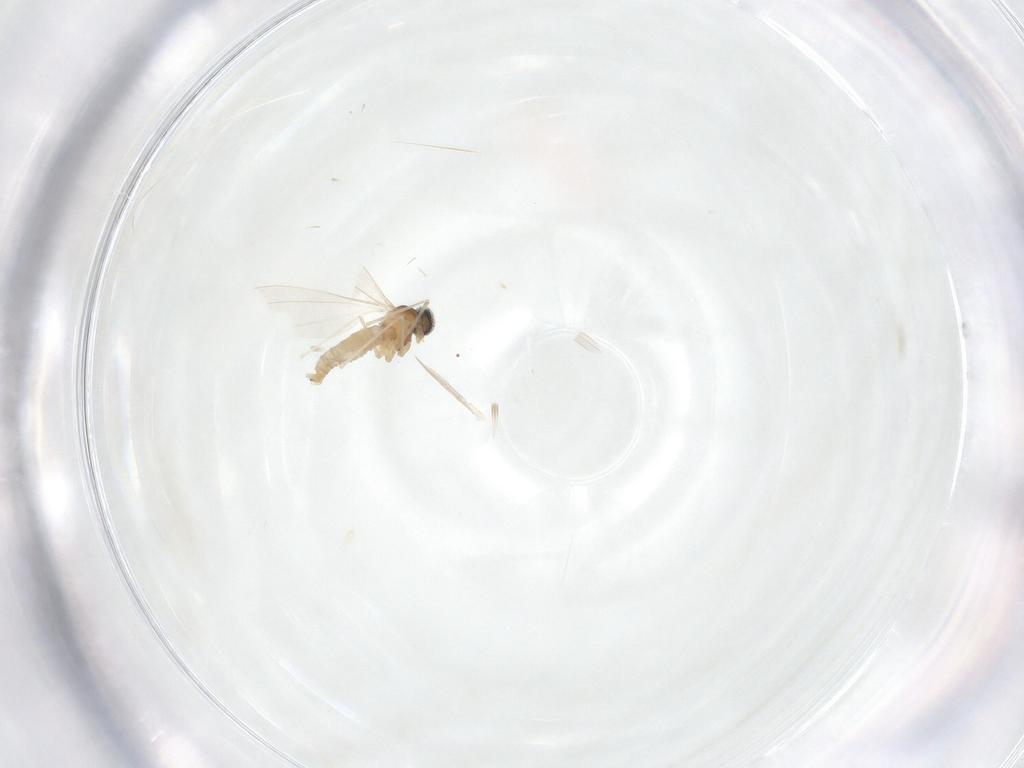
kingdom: Animalia
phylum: Arthropoda
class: Insecta
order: Diptera
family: Cecidomyiidae
